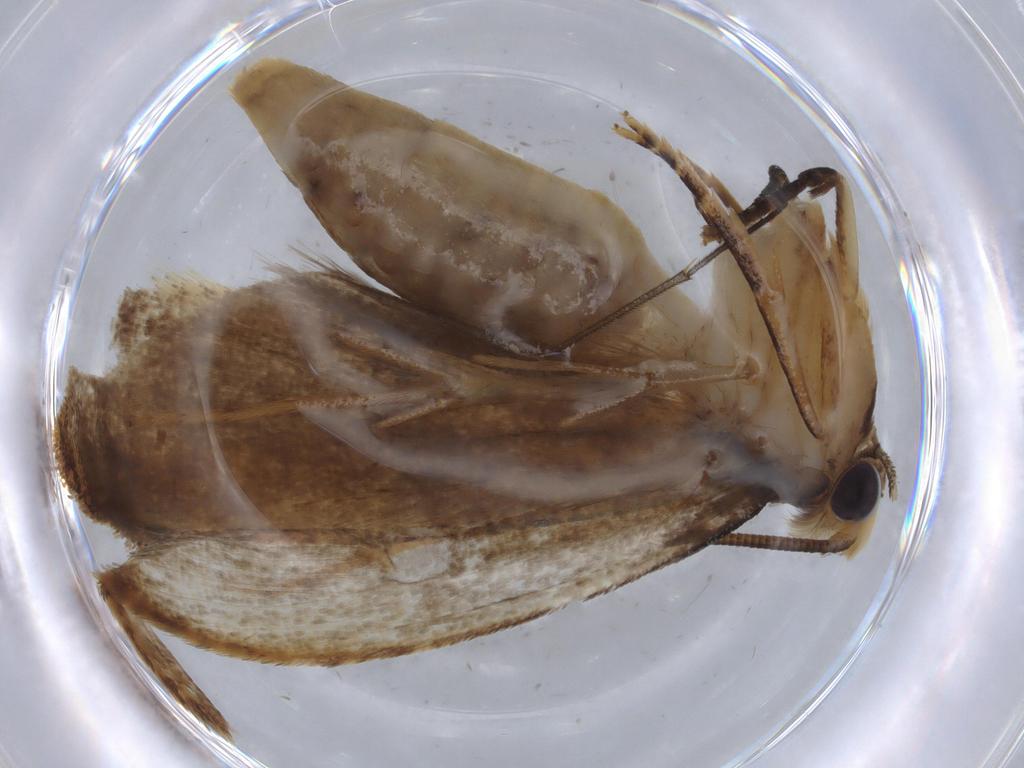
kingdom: Animalia
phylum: Arthropoda
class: Insecta
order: Lepidoptera
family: Tineidae
